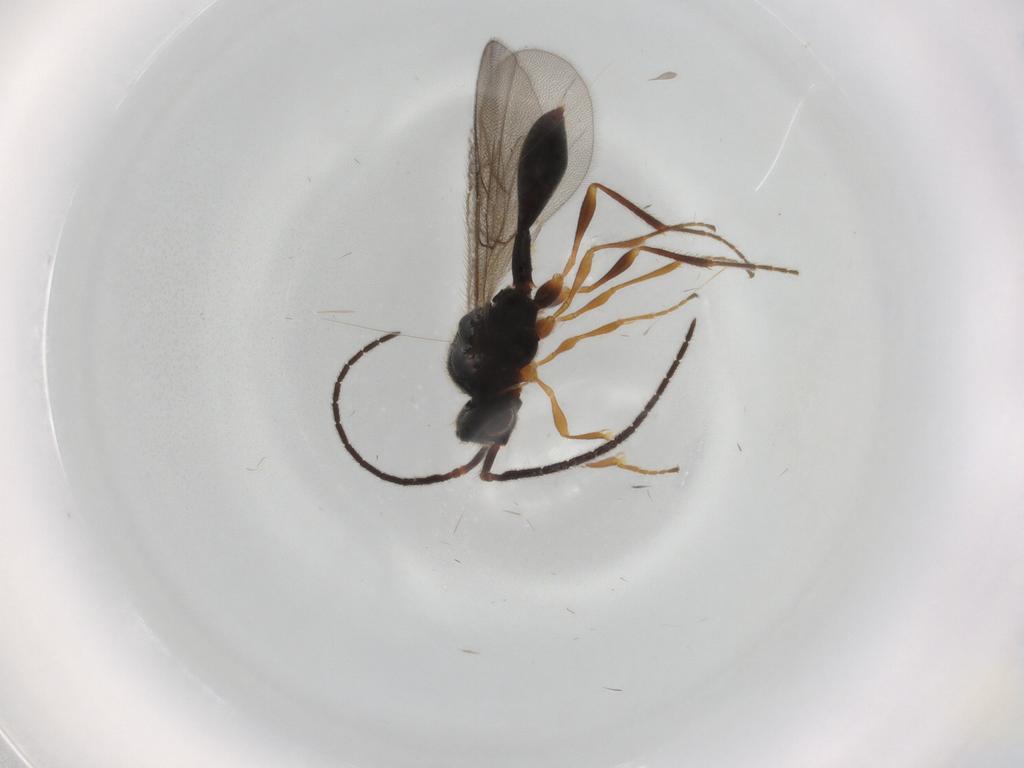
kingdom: Animalia
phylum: Arthropoda
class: Insecta
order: Hymenoptera
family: Diapriidae
